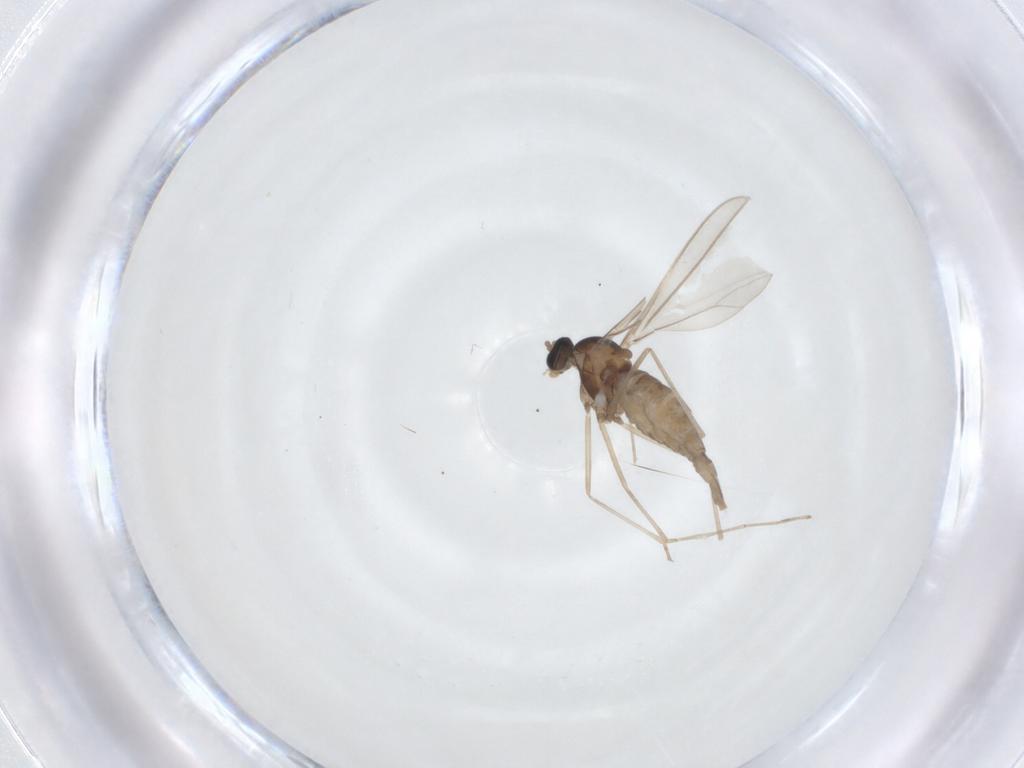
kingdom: Animalia
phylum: Arthropoda
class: Insecta
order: Diptera
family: Cecidomyiidae
